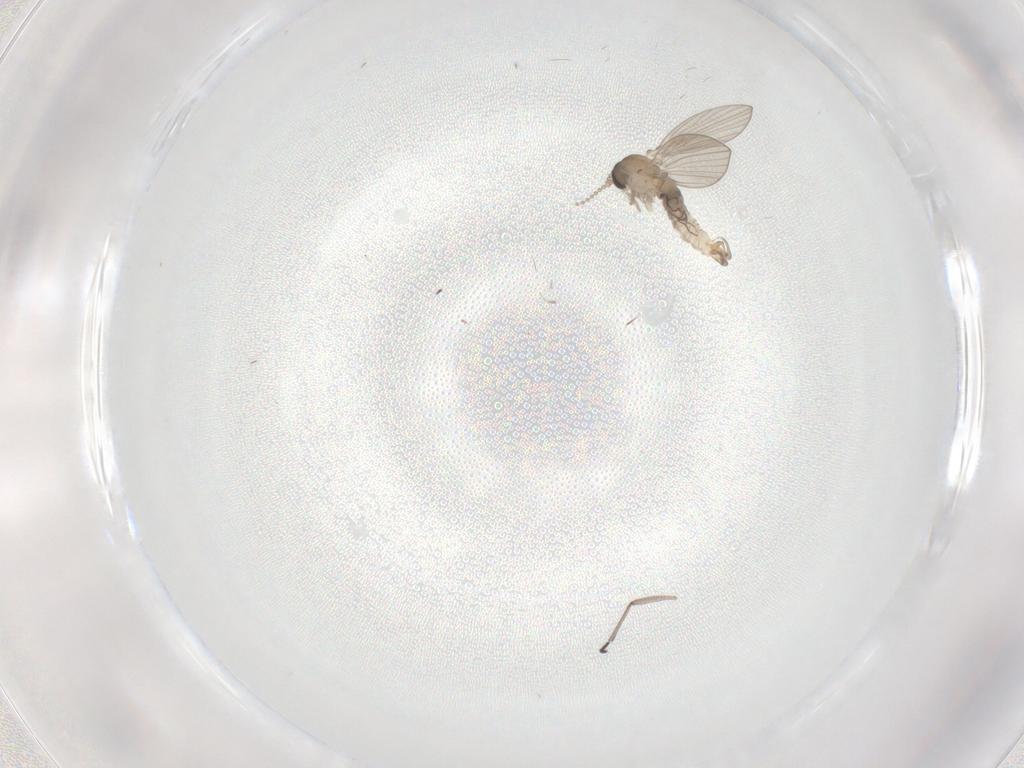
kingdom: Animalia
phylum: Arthropoda
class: Insecta
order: Diptera
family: Sciaridae
